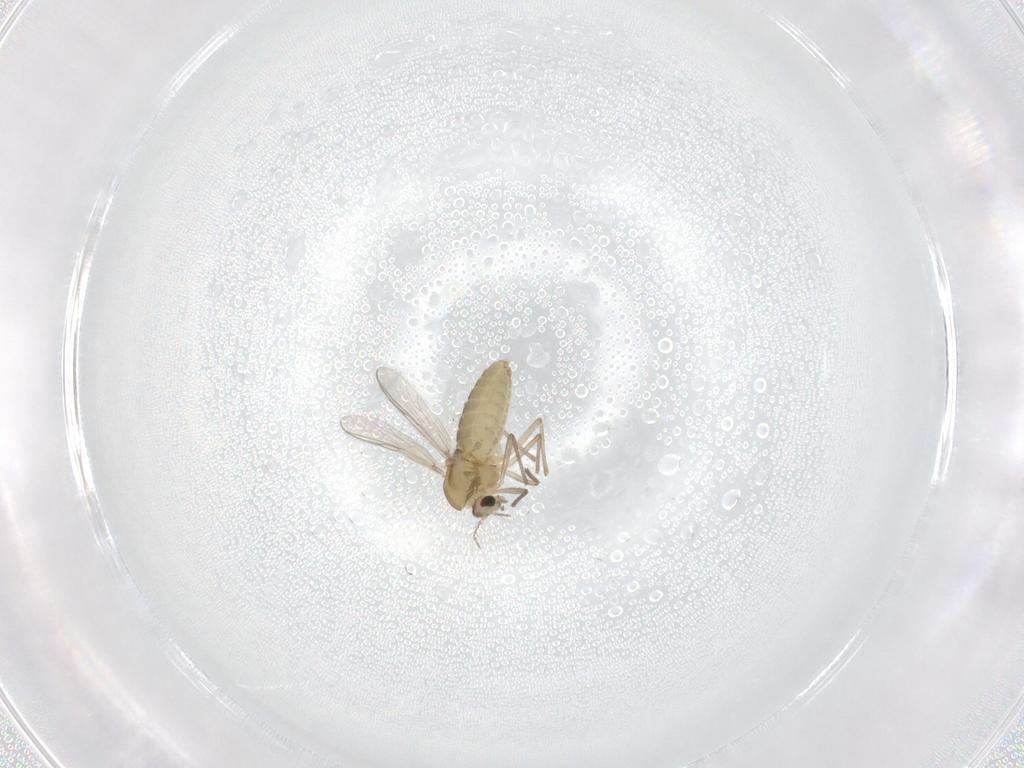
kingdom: Animalia
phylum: Arthropoda
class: Insecta
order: Diptera
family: Chironomidae
